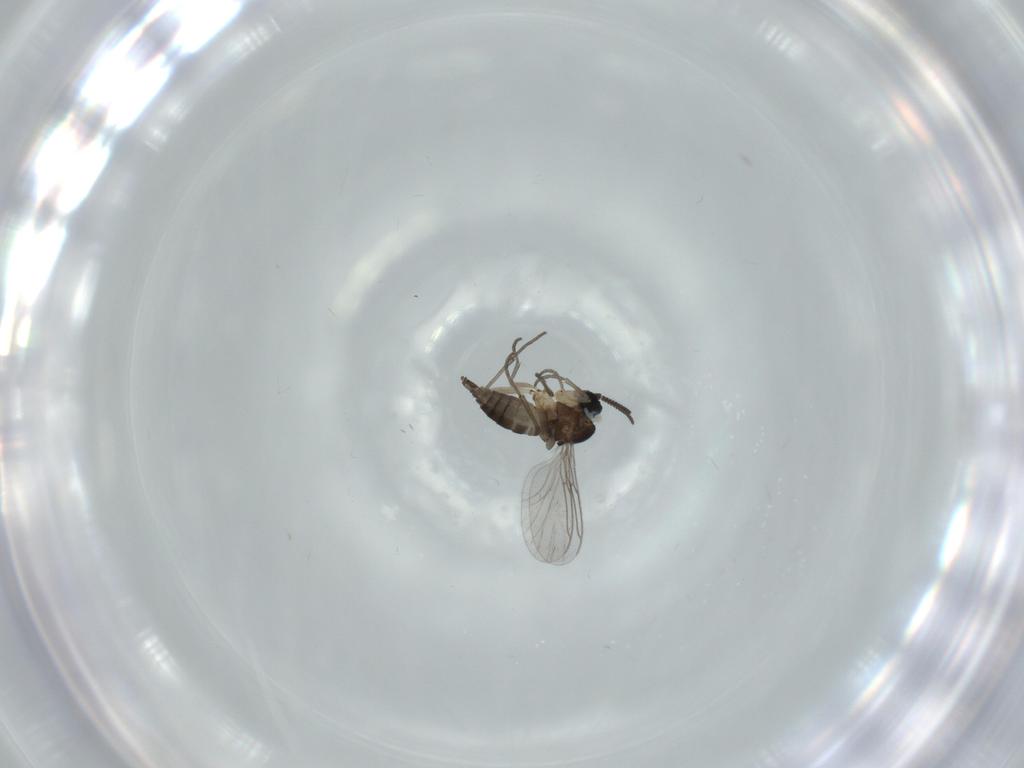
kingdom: Animalia
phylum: Arthropoda
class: Insecta
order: Diptera
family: Sciaridae
